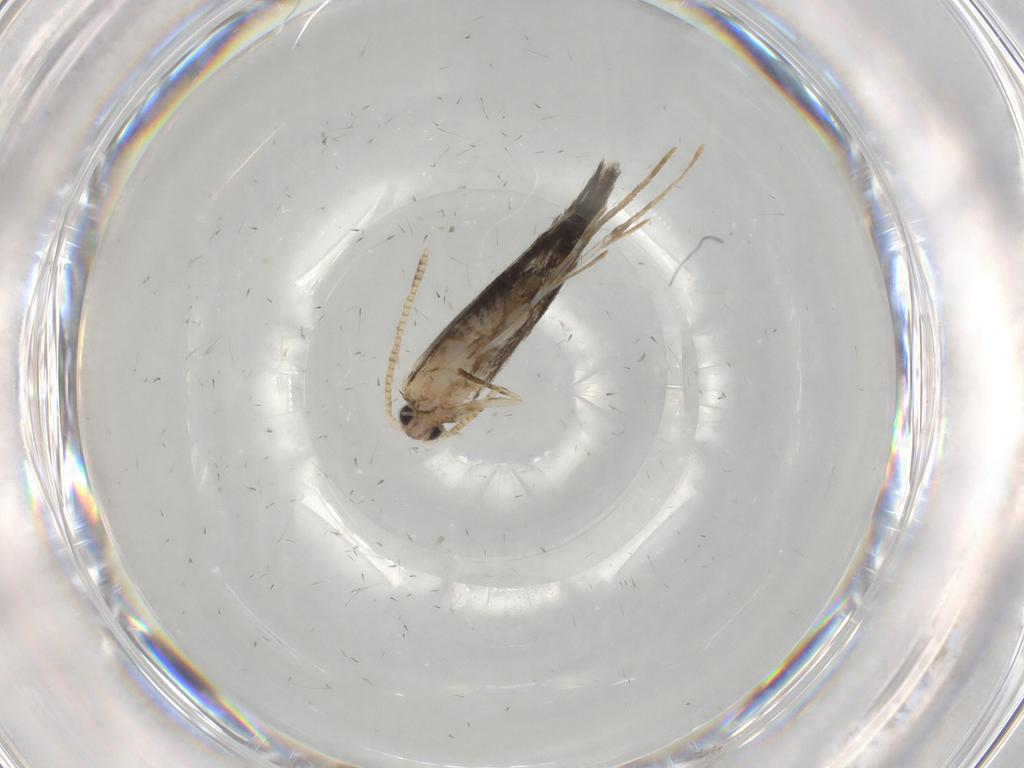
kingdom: Animalia
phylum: Arthropoda
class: Insecta
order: Lepidoptera
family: Tineidae
